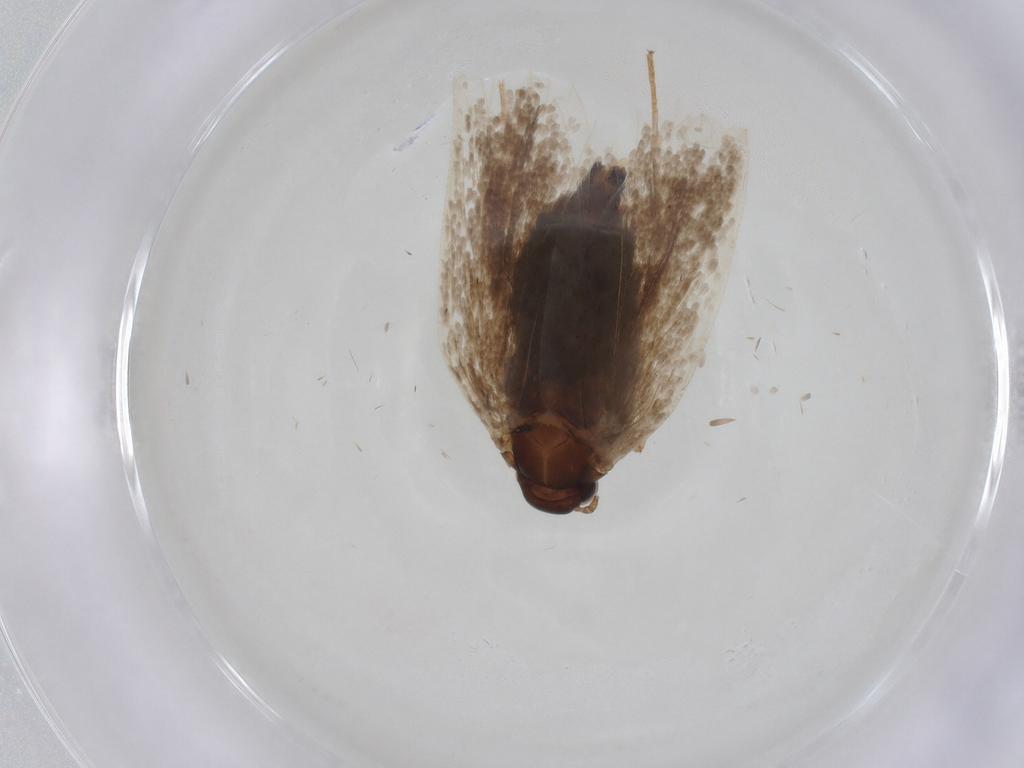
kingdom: Animalia
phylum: Arthropoda
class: Insecta
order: Lepidoptera
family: Oecophoridae
